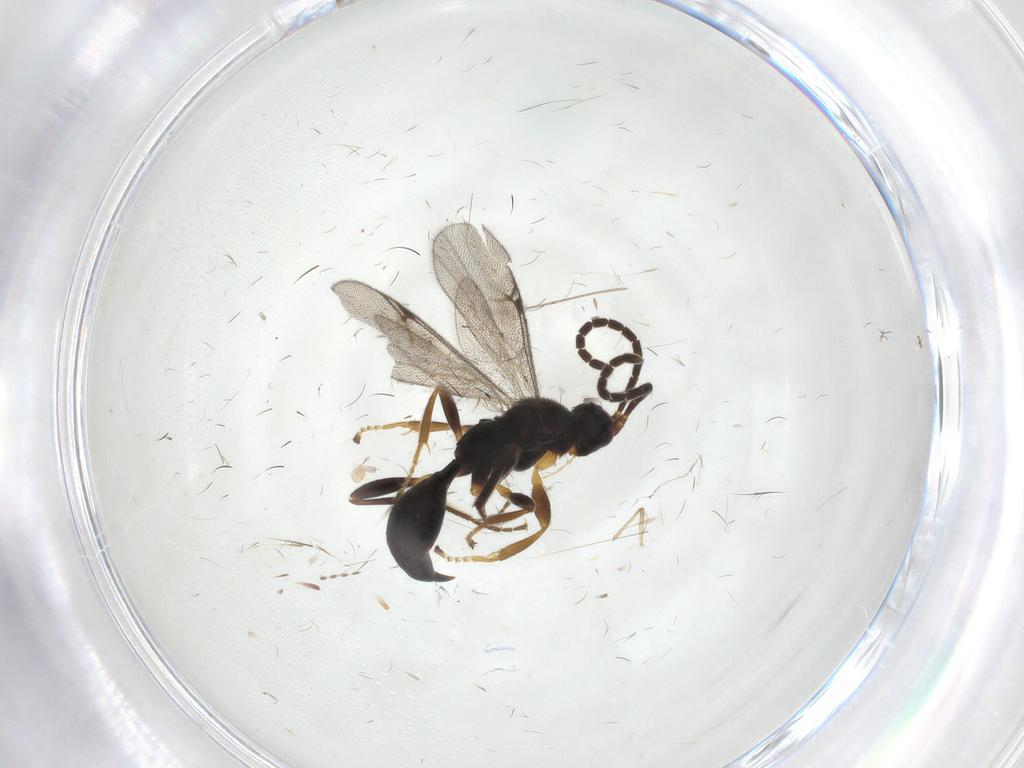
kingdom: Animalia
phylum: Arthropoda
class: Insecta
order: Hymenoptera
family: Proctotrupidae
